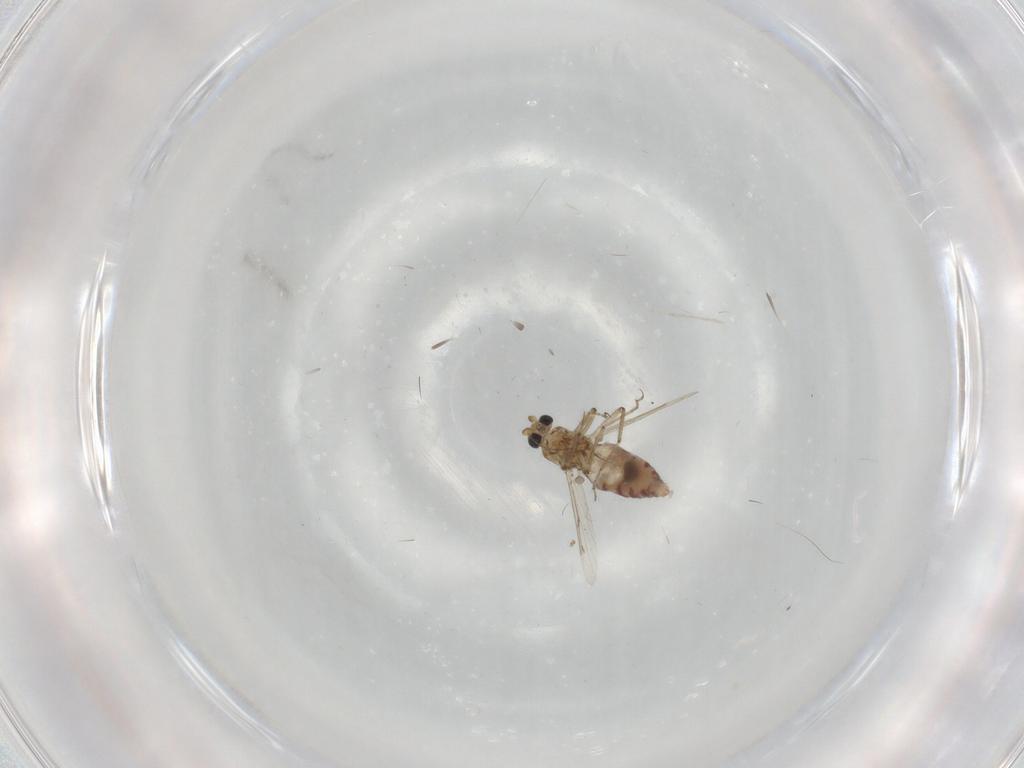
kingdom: Animalia
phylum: Arthropoda
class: Insecta
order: Diptera
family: Ceratopogonidae
